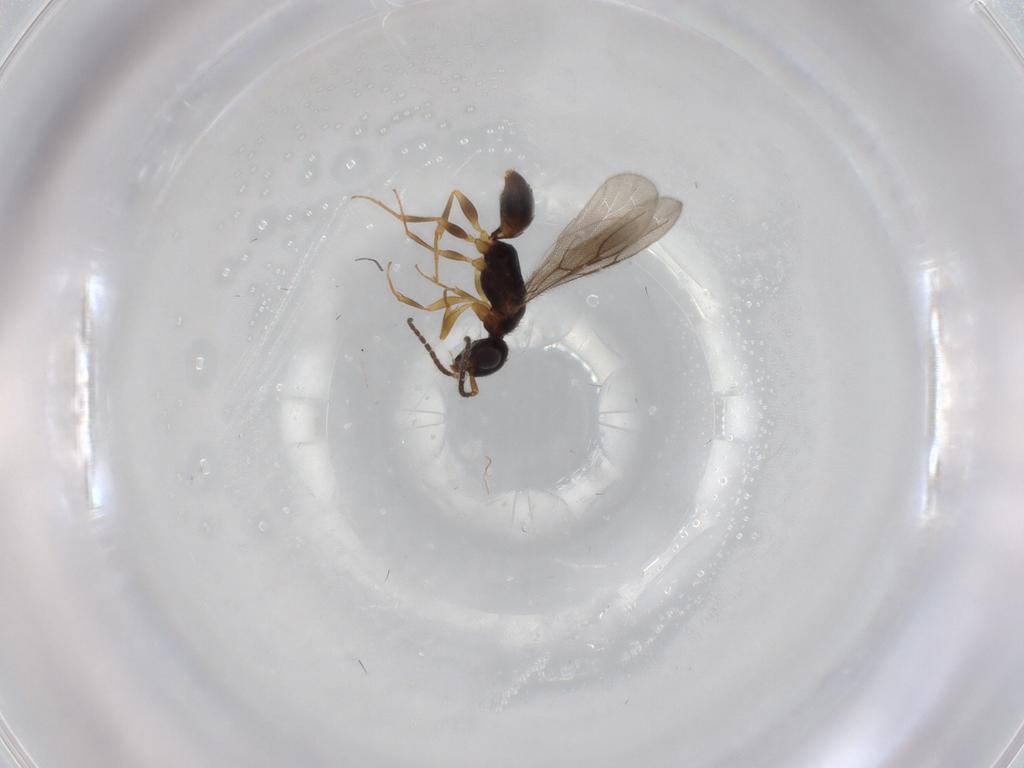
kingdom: Animalia
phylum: Arthropoda
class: Insecta
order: Hymenoptera
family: Bethylidae
